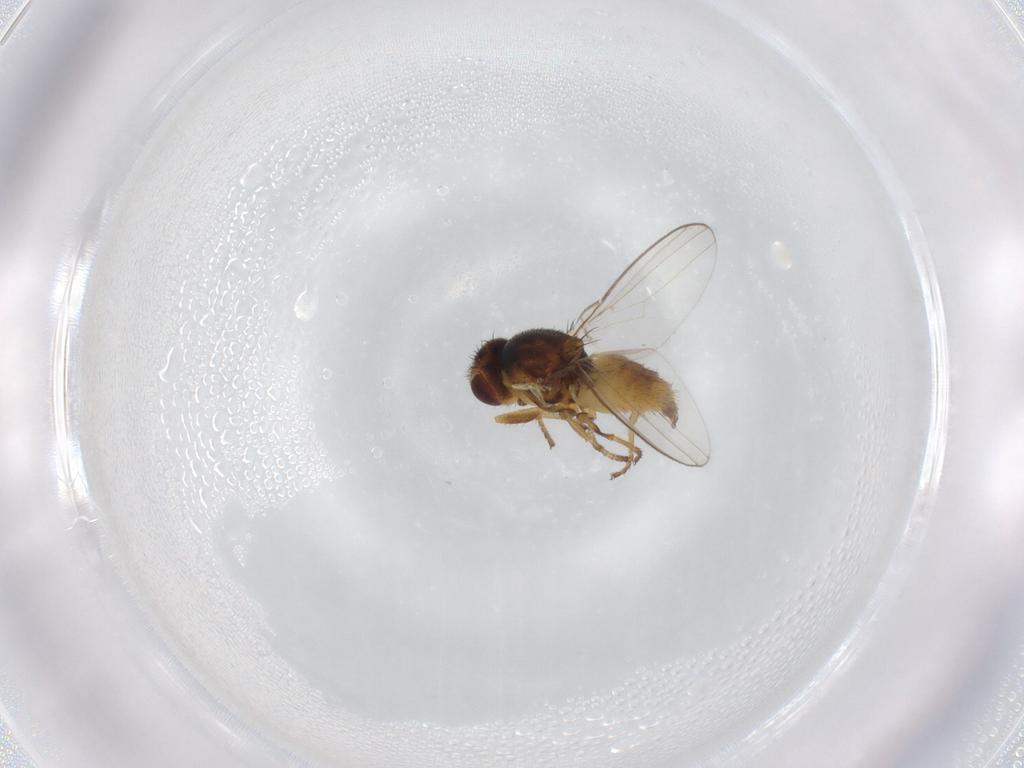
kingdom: Animalia
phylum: Arthropoda
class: Insecta
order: Diptera
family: Chloropidae
